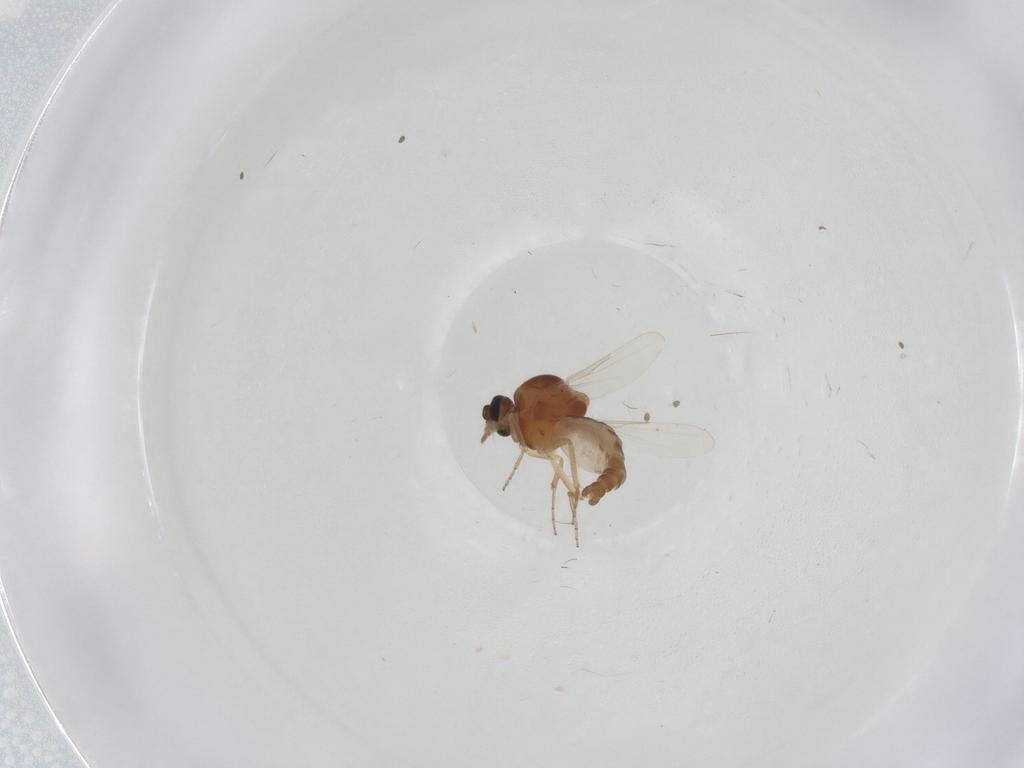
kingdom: Animalia
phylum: Arthropoda
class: Insecta
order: Diptera
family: Ceratopogonidae
